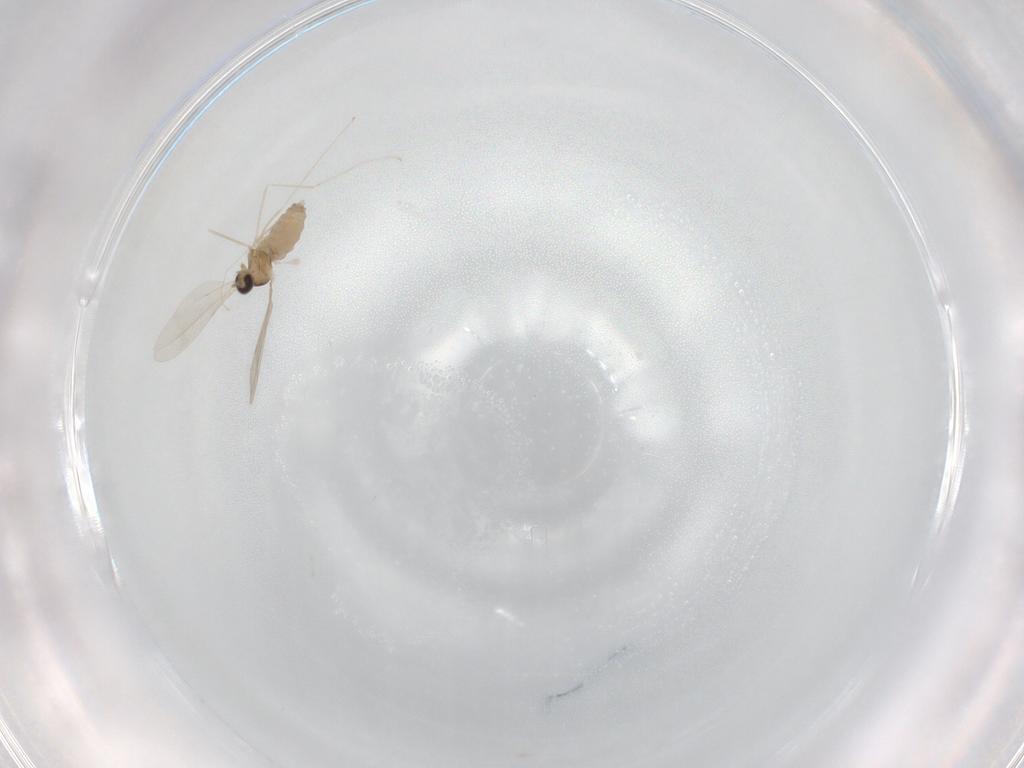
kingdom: Animalia
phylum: Arthropoda
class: Insecta
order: Diptera
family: Cecidomyiidae
